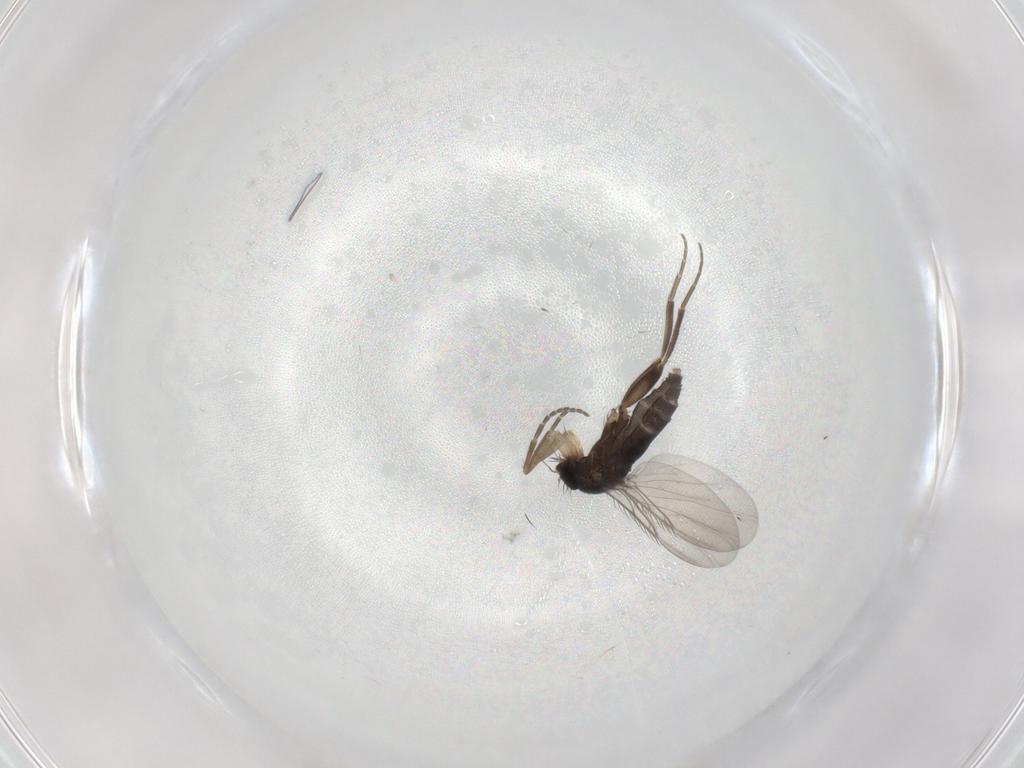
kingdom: Animalia
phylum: Arthropoda
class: Insecta
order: Diptera
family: Phoridae
